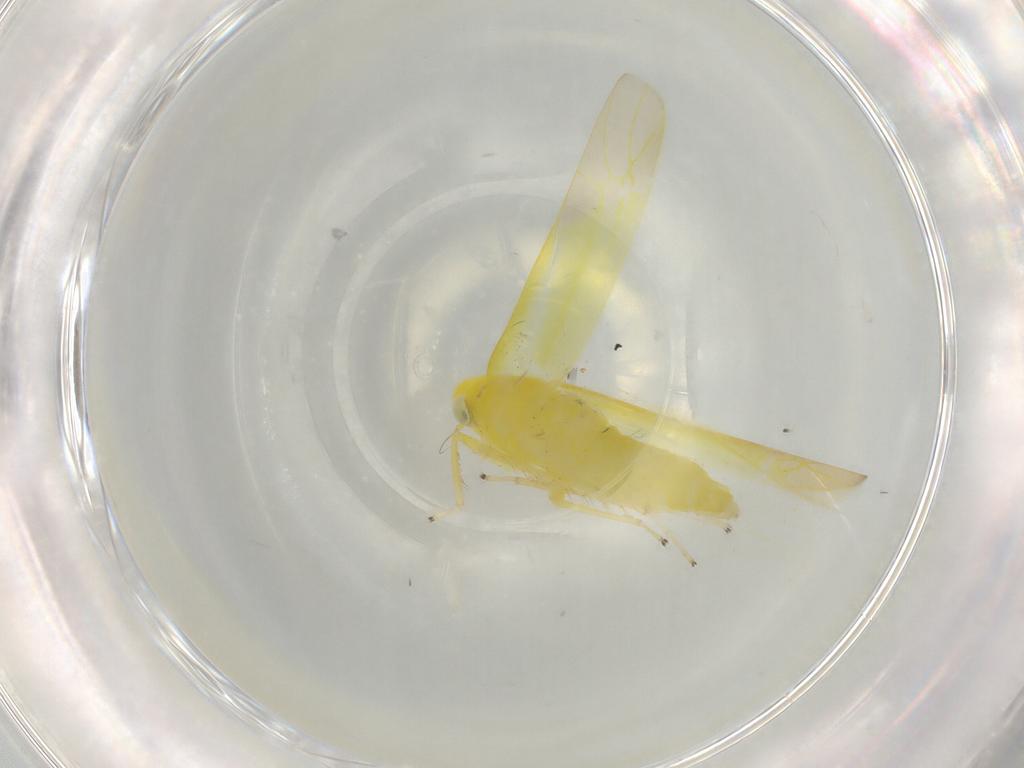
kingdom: Animalia
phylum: Arthropoda
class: Insecta
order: Hemiptera
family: Cicadellidae
